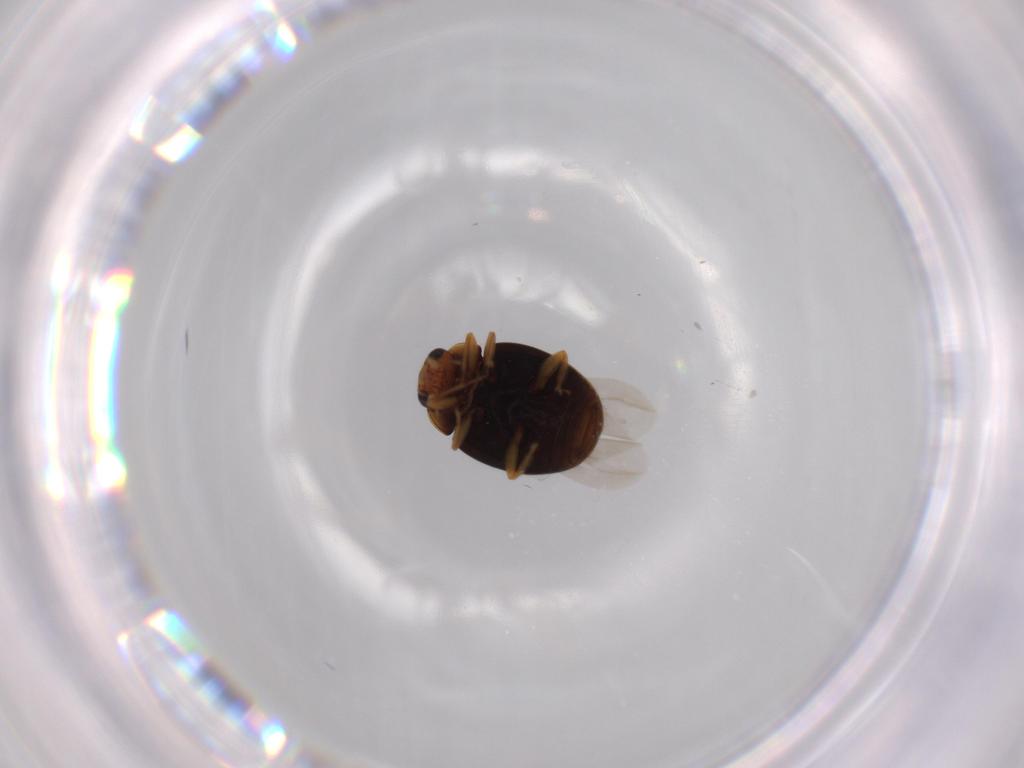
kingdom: Animalia
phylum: Arthropoda
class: Insecta
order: Coleoptera
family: Coccinellidae
